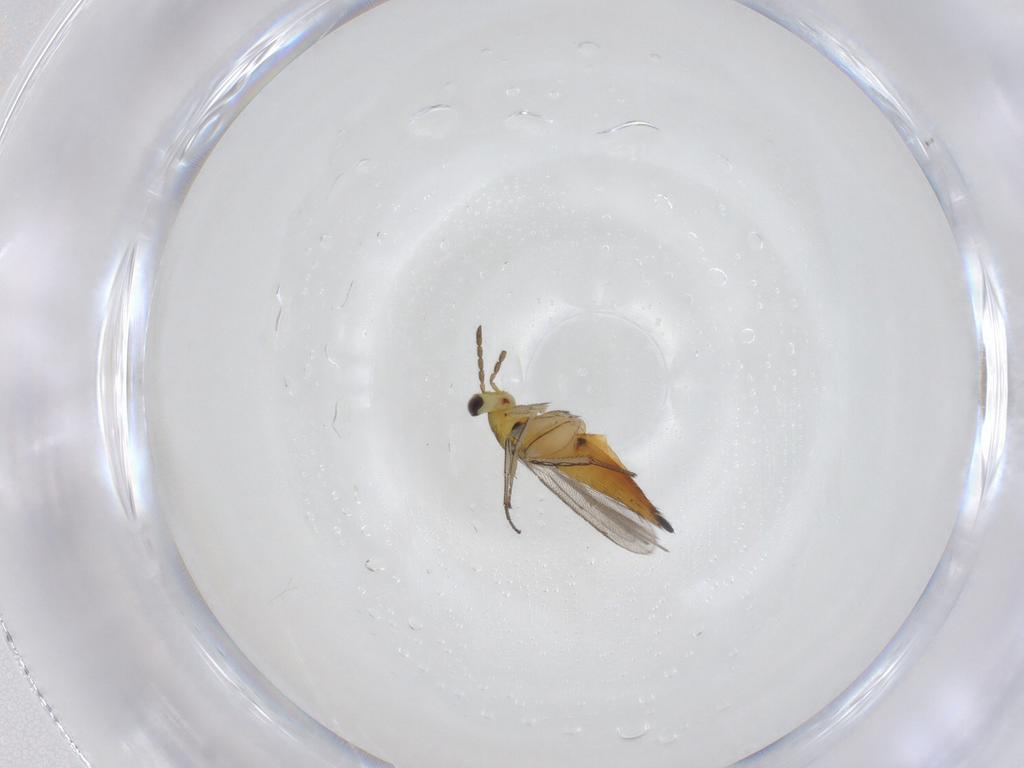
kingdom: Animalia
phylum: Arthropoda
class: Insecta
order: Hymenoptera
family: Eulophidae
